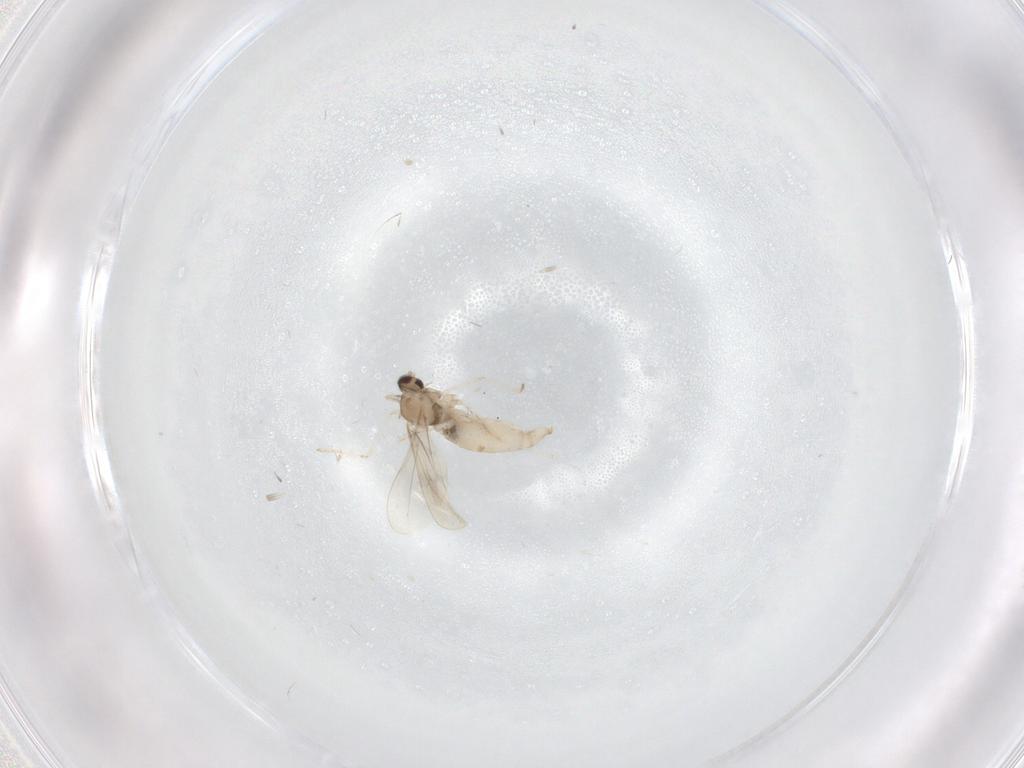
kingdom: Animalia
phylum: Arthropoda
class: Insecta
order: Diptera
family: Cecidomyiidae
